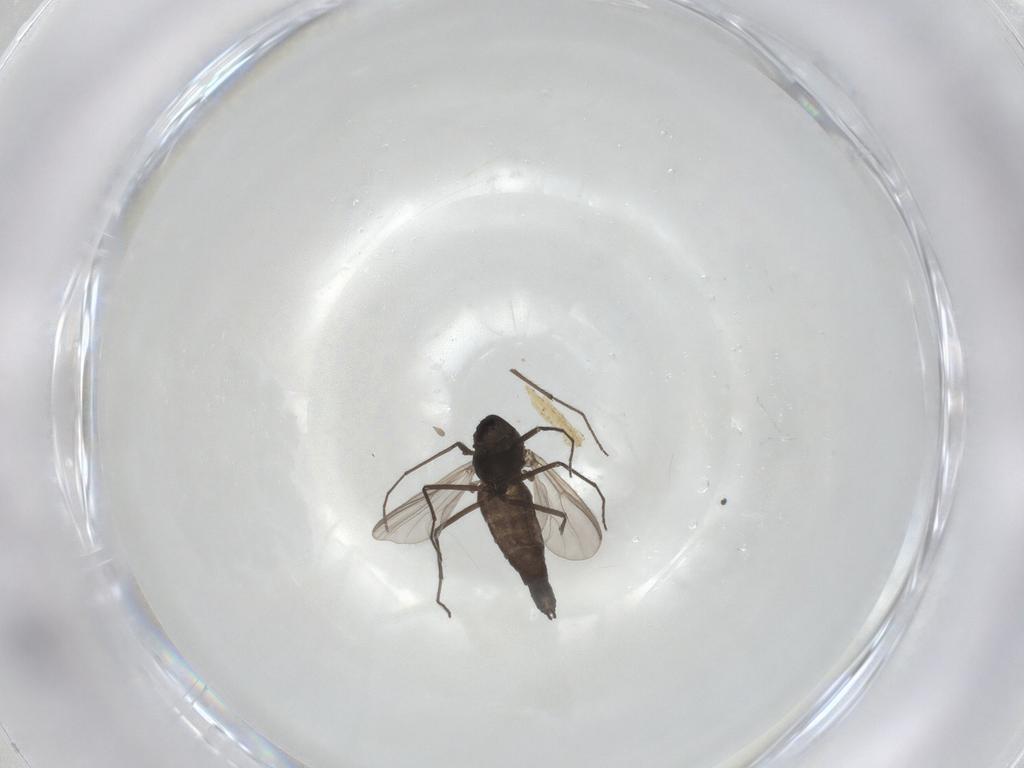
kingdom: Animalia
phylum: Arthropoda
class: Insecta
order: Diptera
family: Chironomidae
